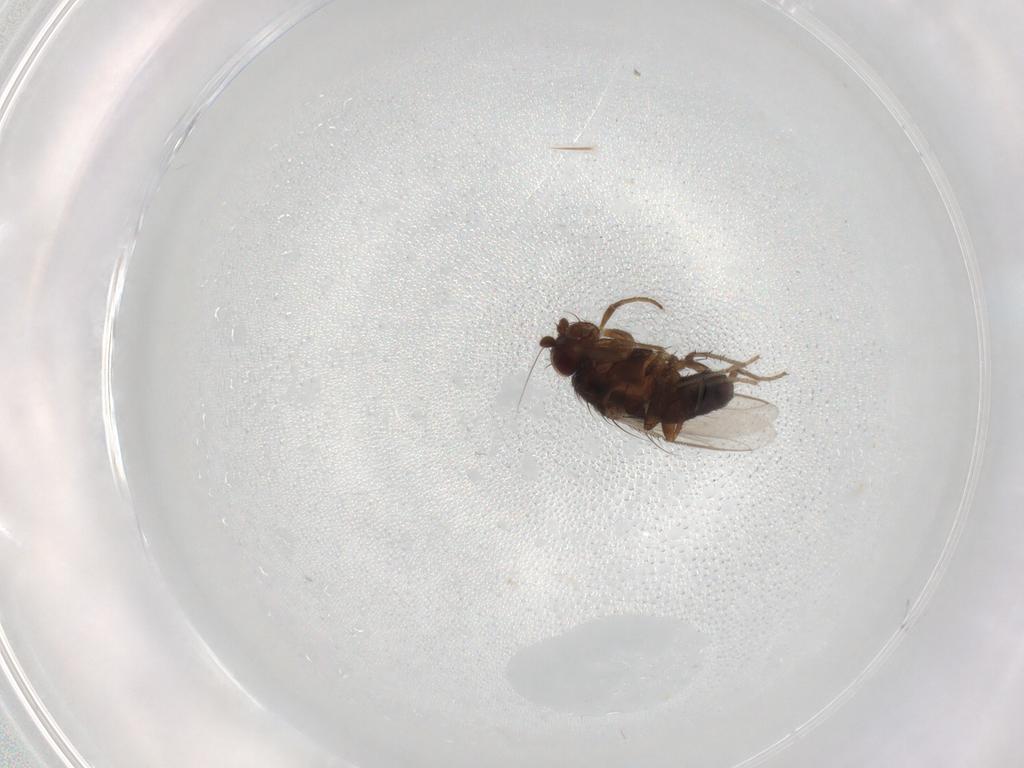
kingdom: Animalia
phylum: Arthropoda
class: Insecta
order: Diptera
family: Sphaeroceridae
